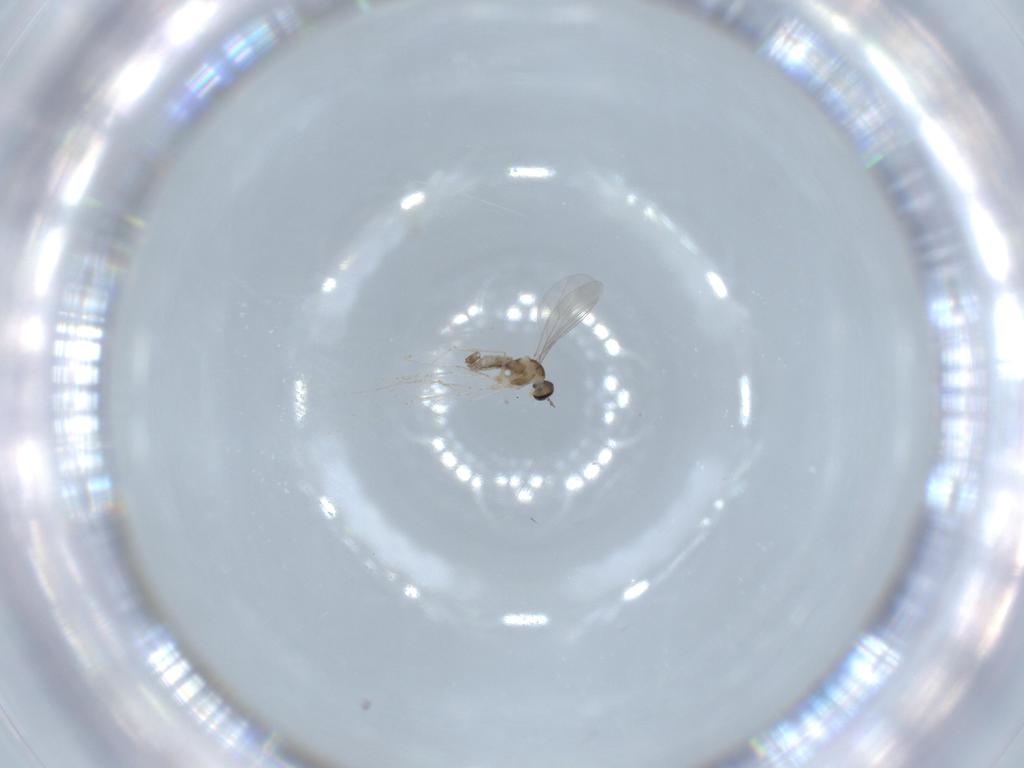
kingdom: Animalia
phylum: Arthropoda
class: Insecta
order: Diptera
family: Cecidomyiidae
